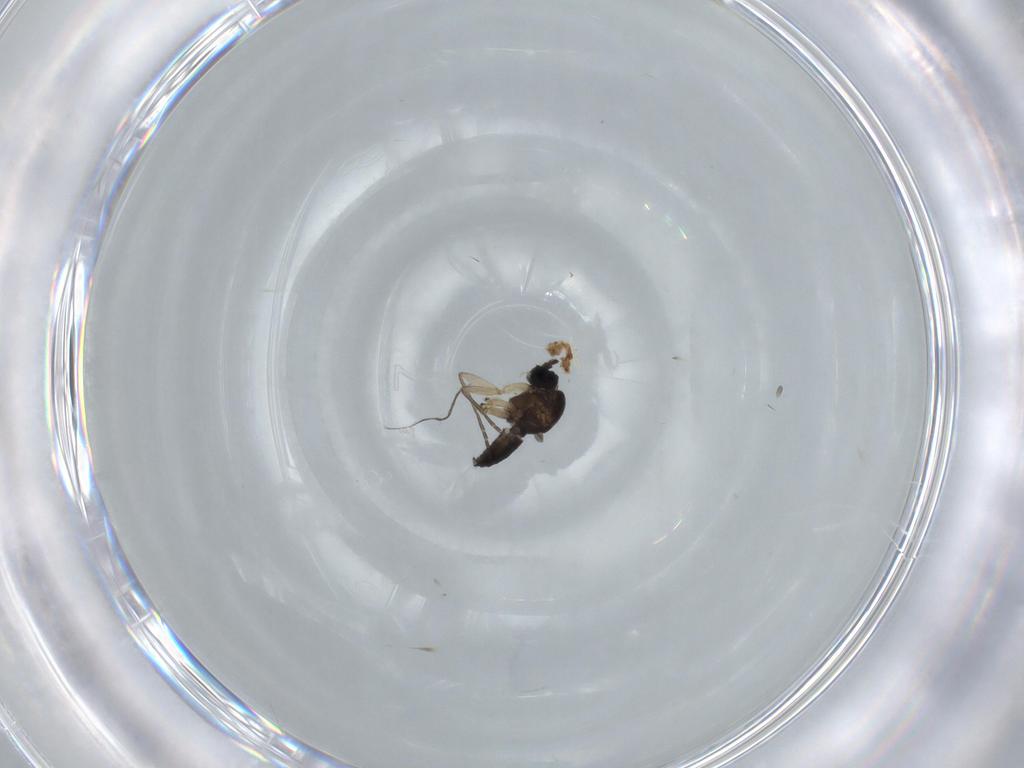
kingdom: Animalia
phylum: Arthropoda
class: Insecta
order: Diptera
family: Sciaridae
